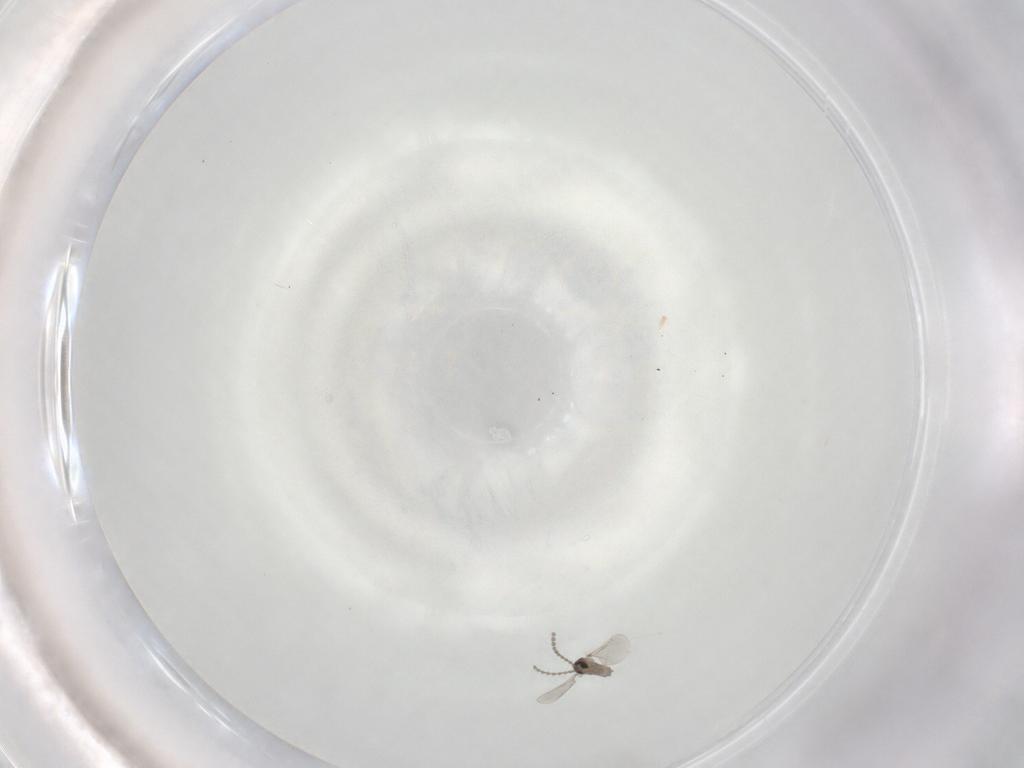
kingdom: Animalia
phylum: Arthropoda
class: Insecta
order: Diptera
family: Cecidomyiidae
